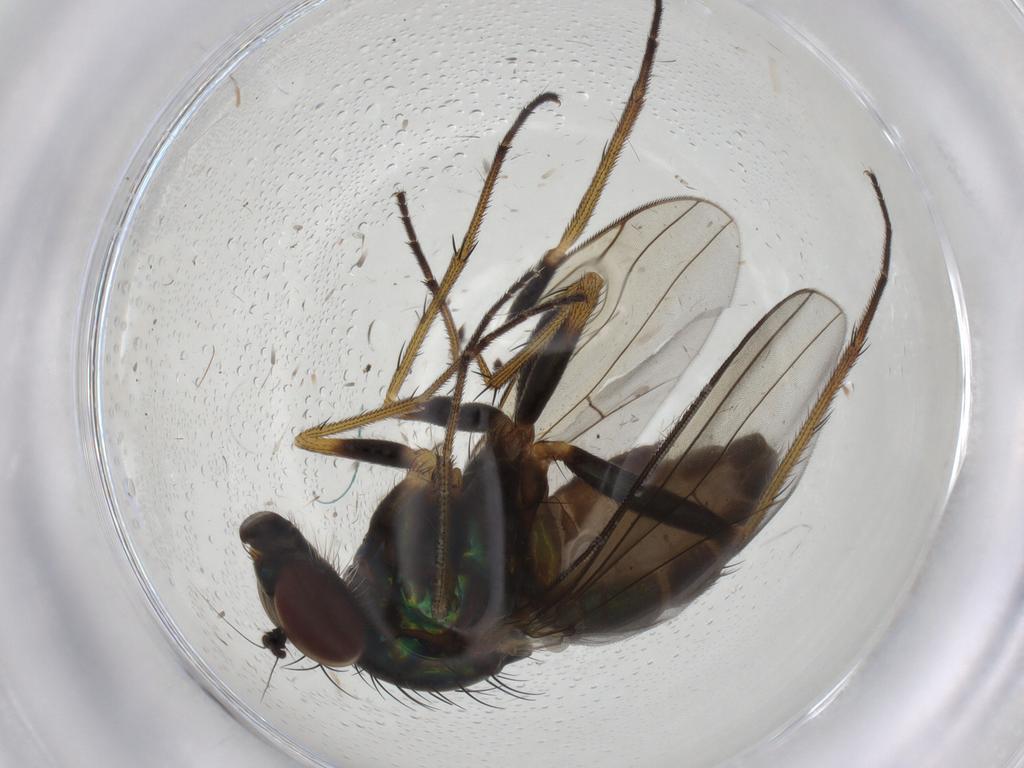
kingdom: Animalia
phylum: Arthropoda
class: Insecta
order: Diptera
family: Dolichopodidae
